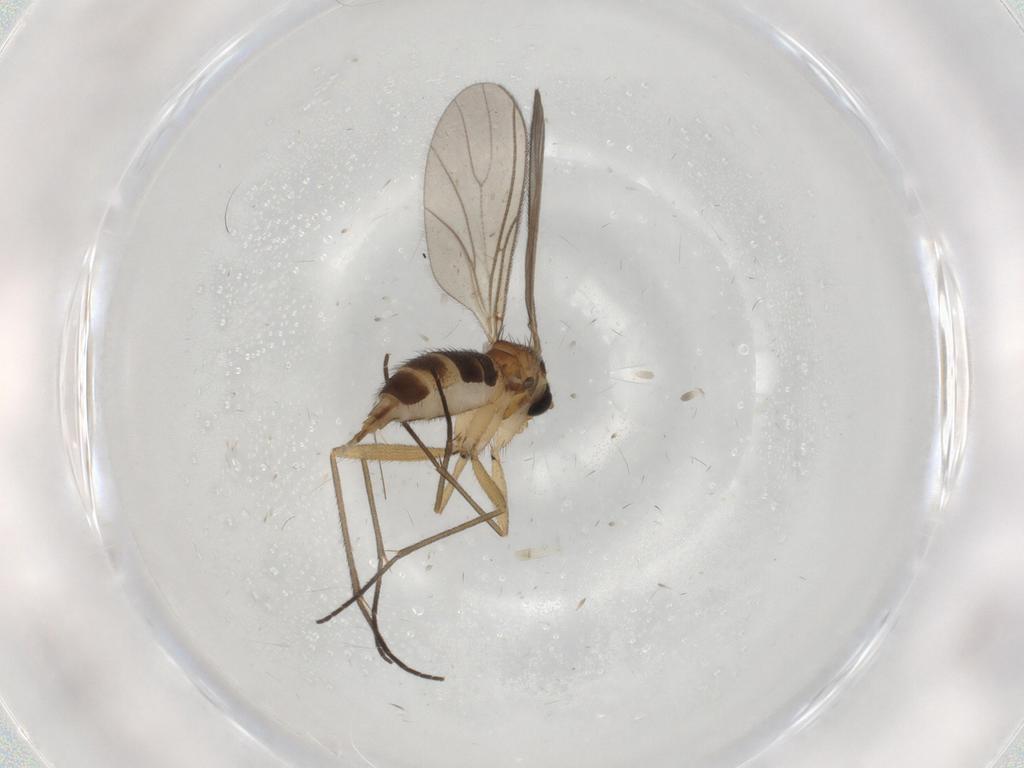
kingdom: Animalia
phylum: Arthropoda
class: Insecta
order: Diptera
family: Sciaridae
